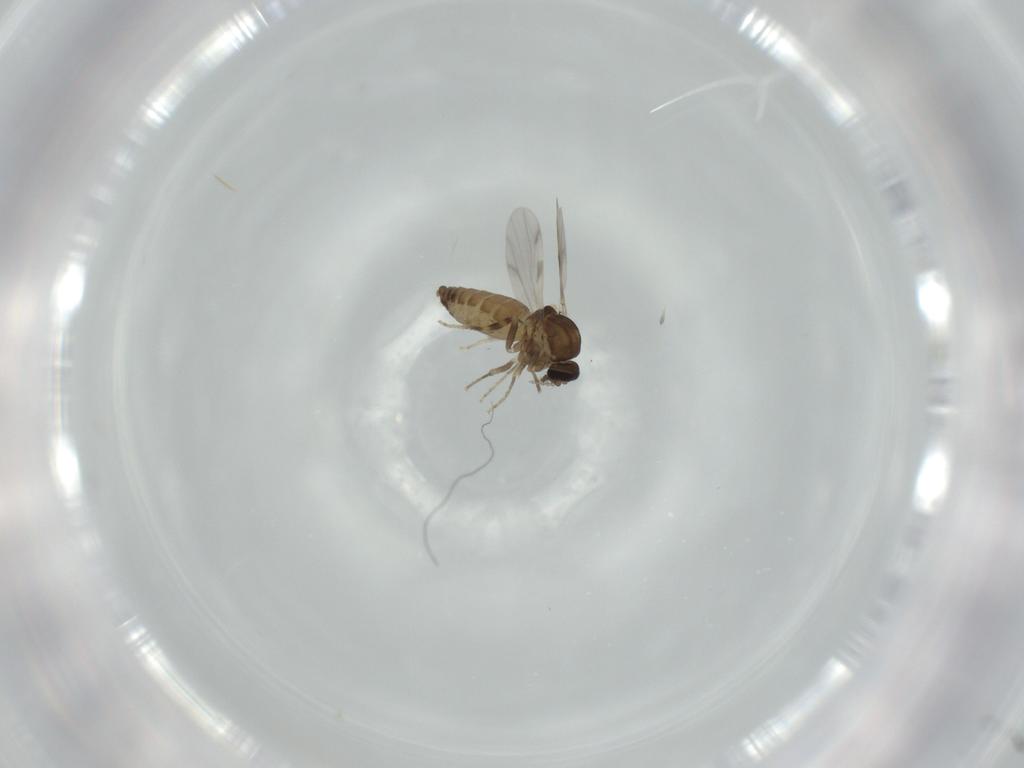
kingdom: Animalia
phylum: Arthropoda
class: Insecta
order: Diptera
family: Ceratopogonidae
